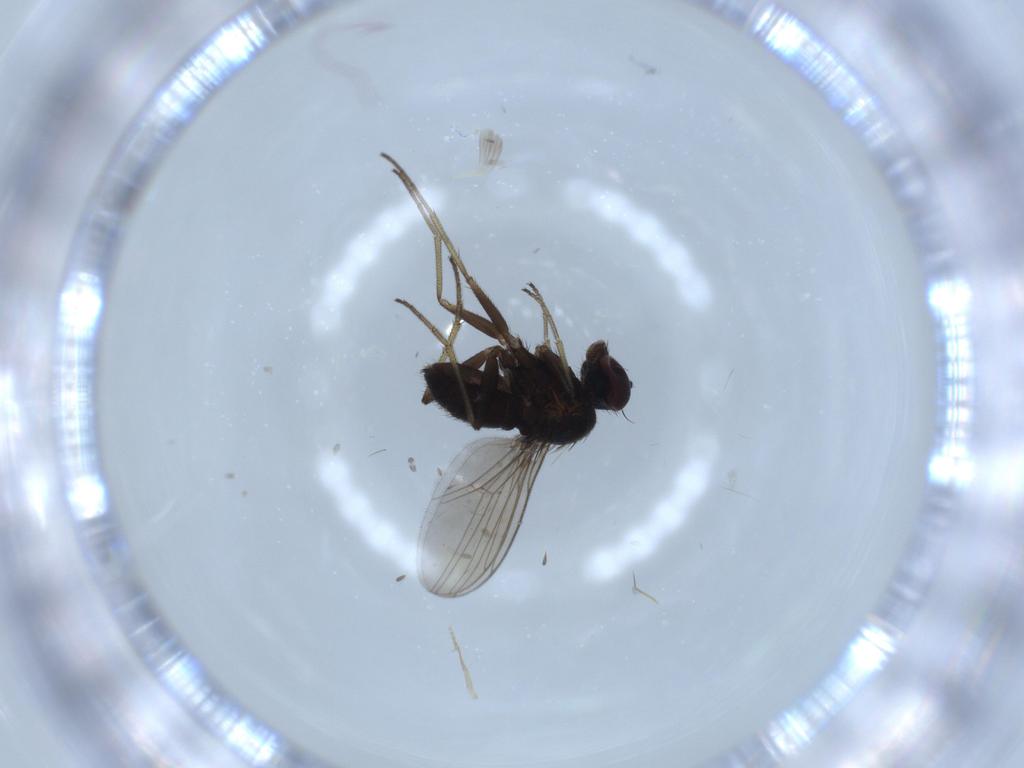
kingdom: Animalia
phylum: Arthropoda
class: Insecta
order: Diptera
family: Dolichopodidae
